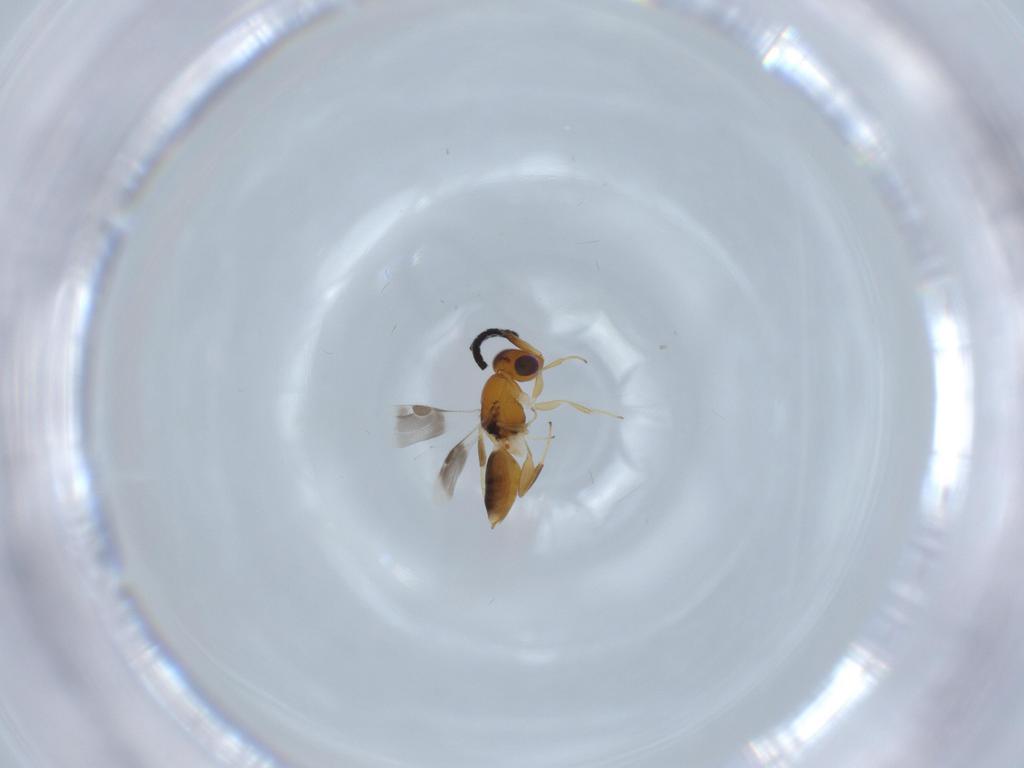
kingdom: Animalia
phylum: Arthropoda
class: Insecta
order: Hymenoptera
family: Megaspilidae
